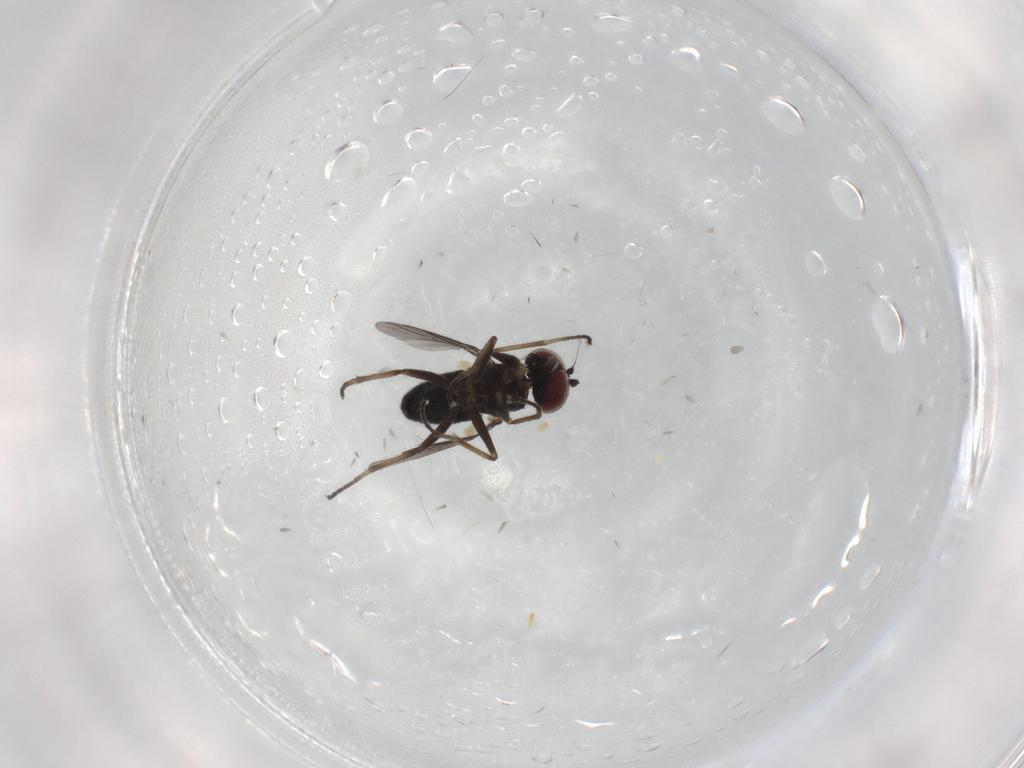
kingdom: Animalia
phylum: Arthropoda
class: Insecta
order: Diptera
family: Dolichopodidae
